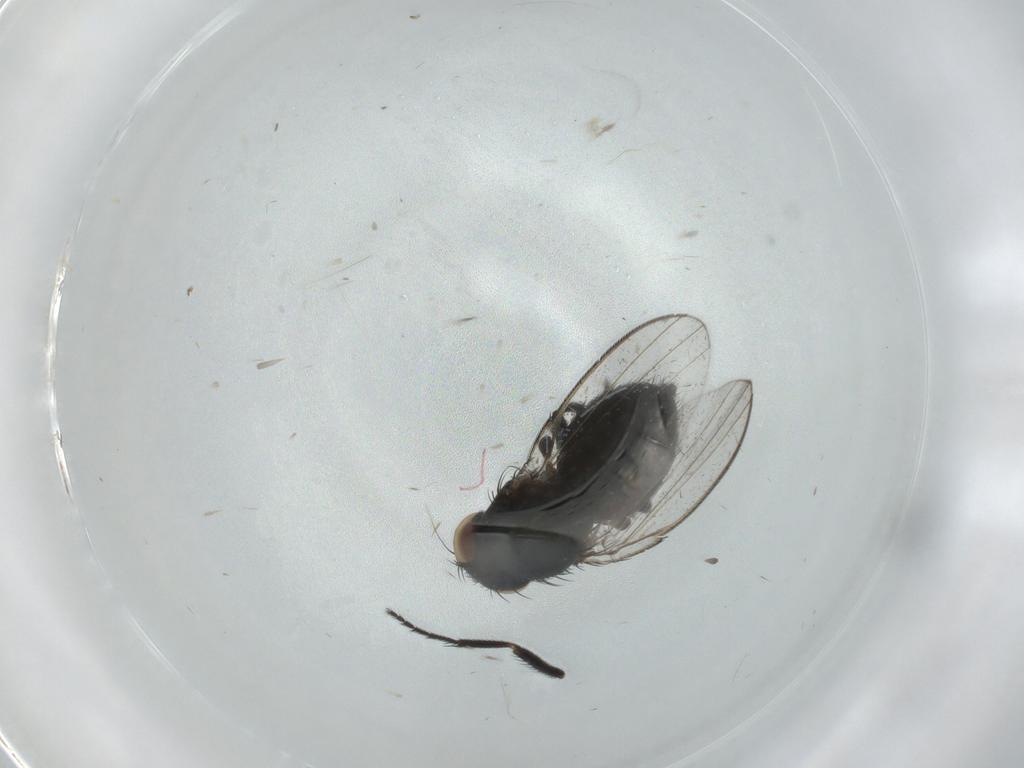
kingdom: Animalia
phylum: Arthropoda
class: Insecta
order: Diptera
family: Milichiidae
